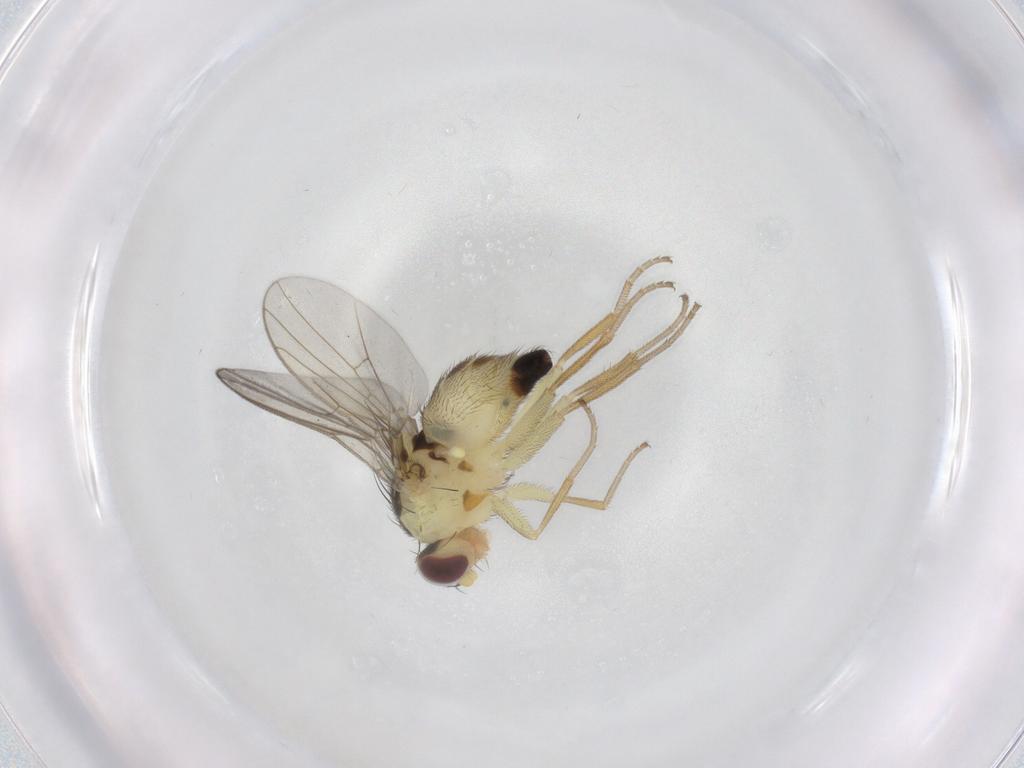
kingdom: Animalia
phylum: Arthropoda
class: Insecta
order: Diptera
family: Agromyzidae
